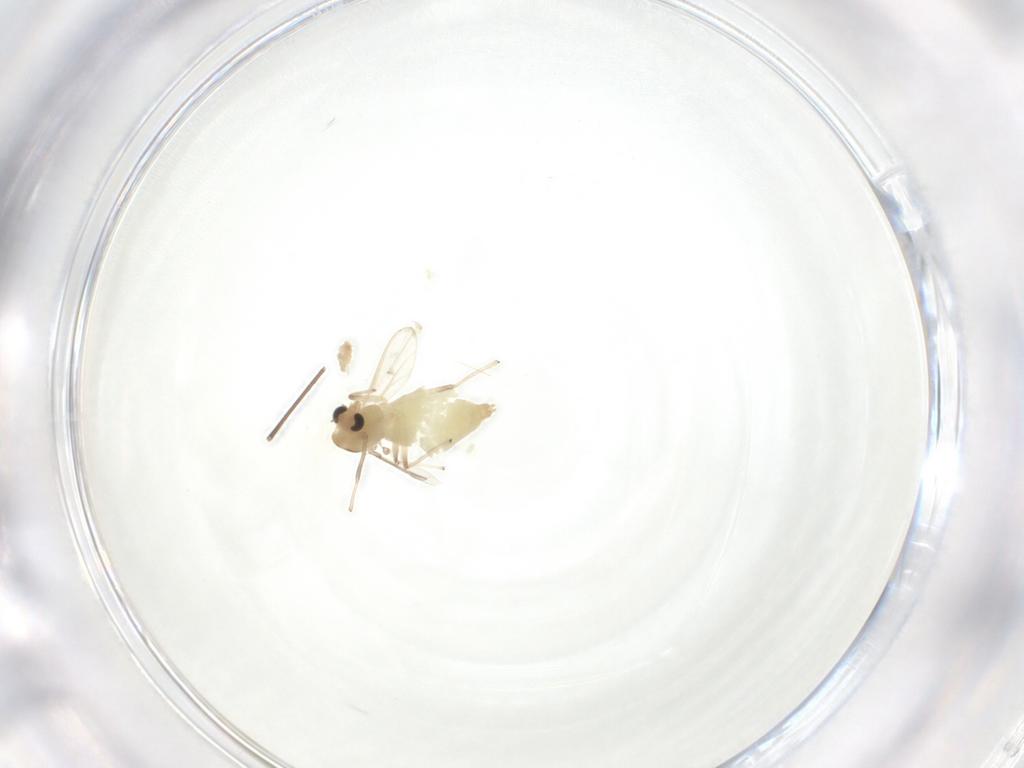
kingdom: Animalia
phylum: Arthropoda
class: Insecta
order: Diptera
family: Chironomidae
